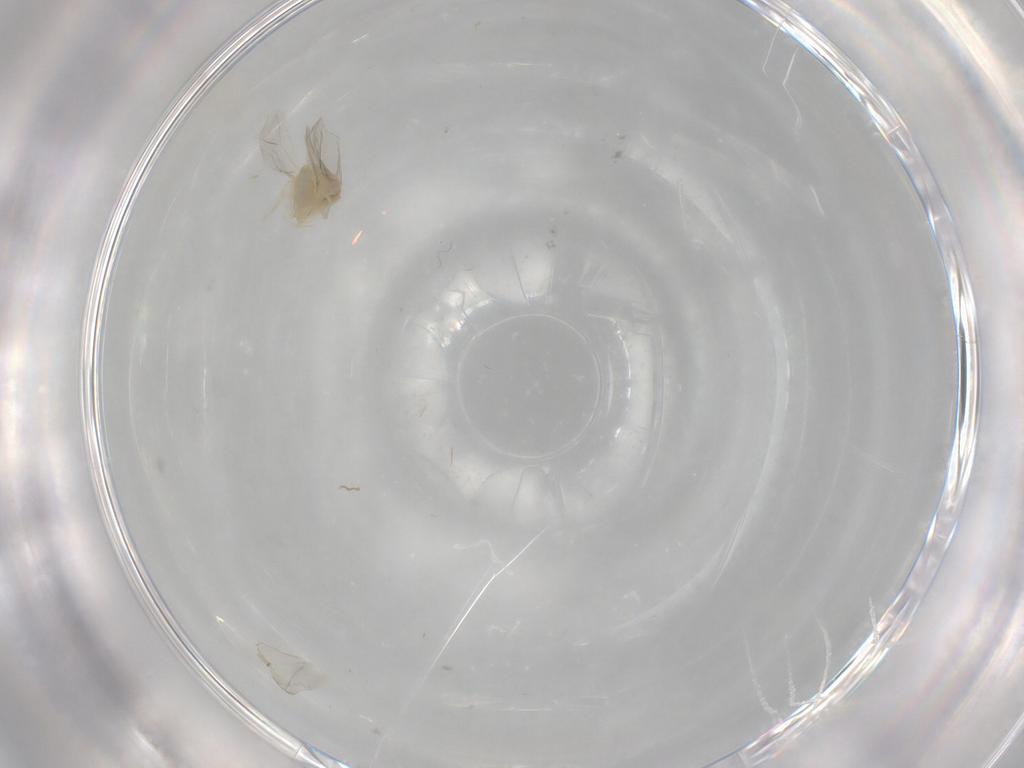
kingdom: Animalia
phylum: Arthropoda
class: Insecta
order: Hemiptera
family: Aleyrodidae
